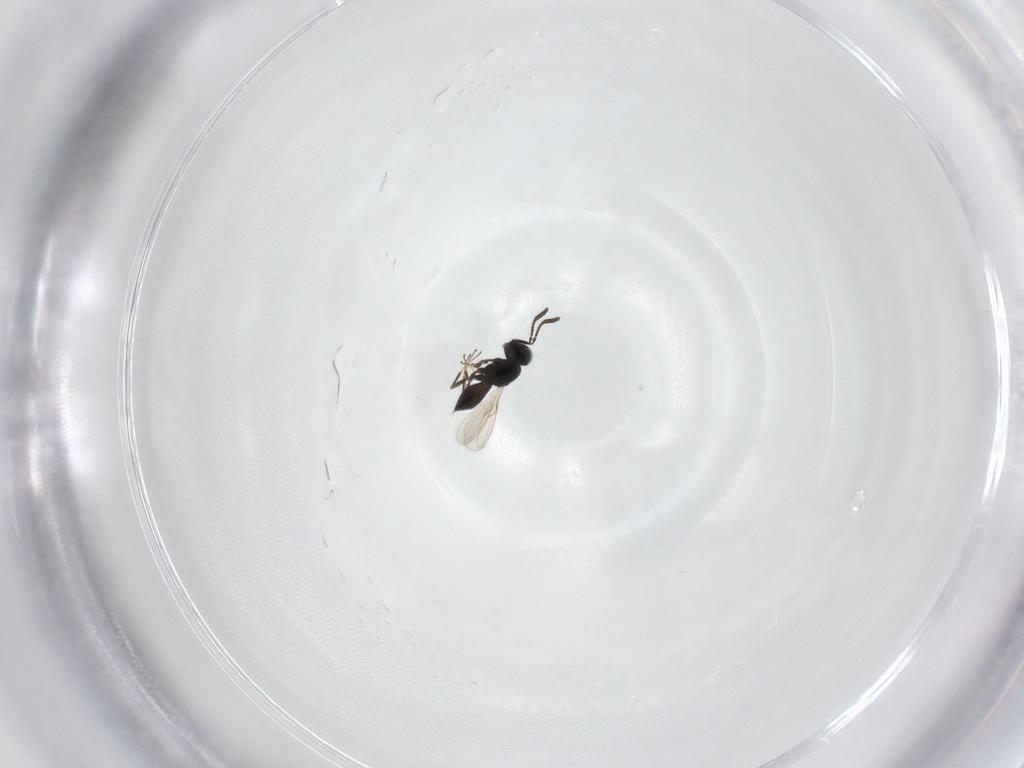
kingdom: Animalia
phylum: Arthropoda
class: Insecta
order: Hymenoptera
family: Scelionidae
